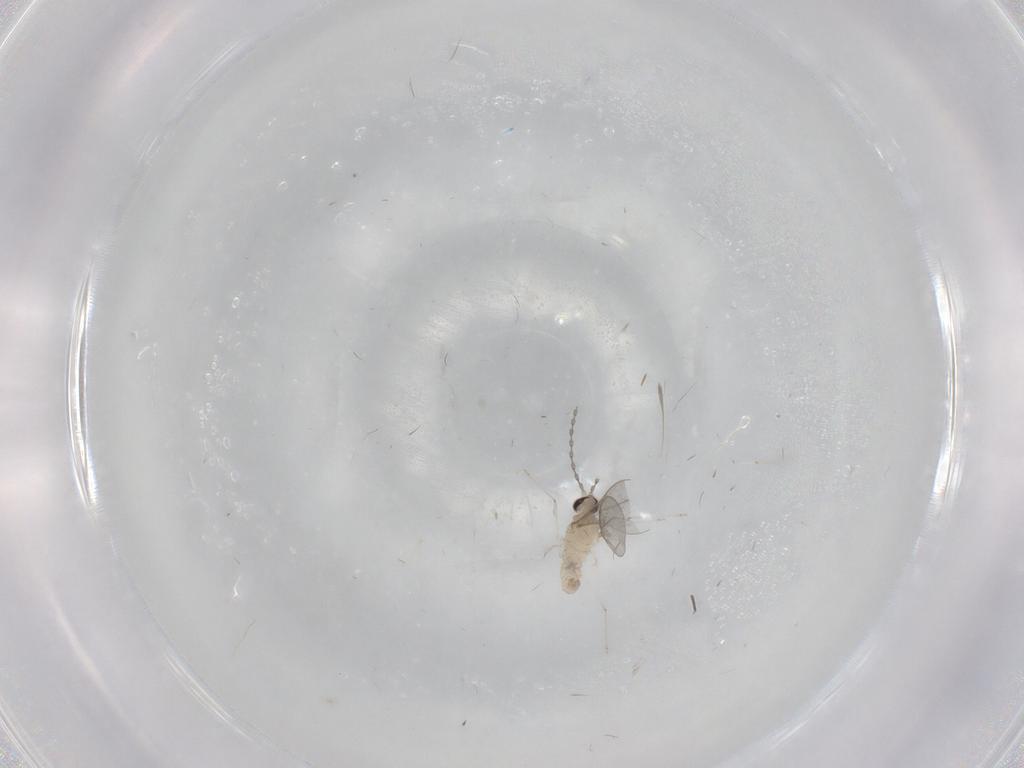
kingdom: Animalia
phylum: Arthropoda
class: Insecta
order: Diptera
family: Cecidomyiidae
